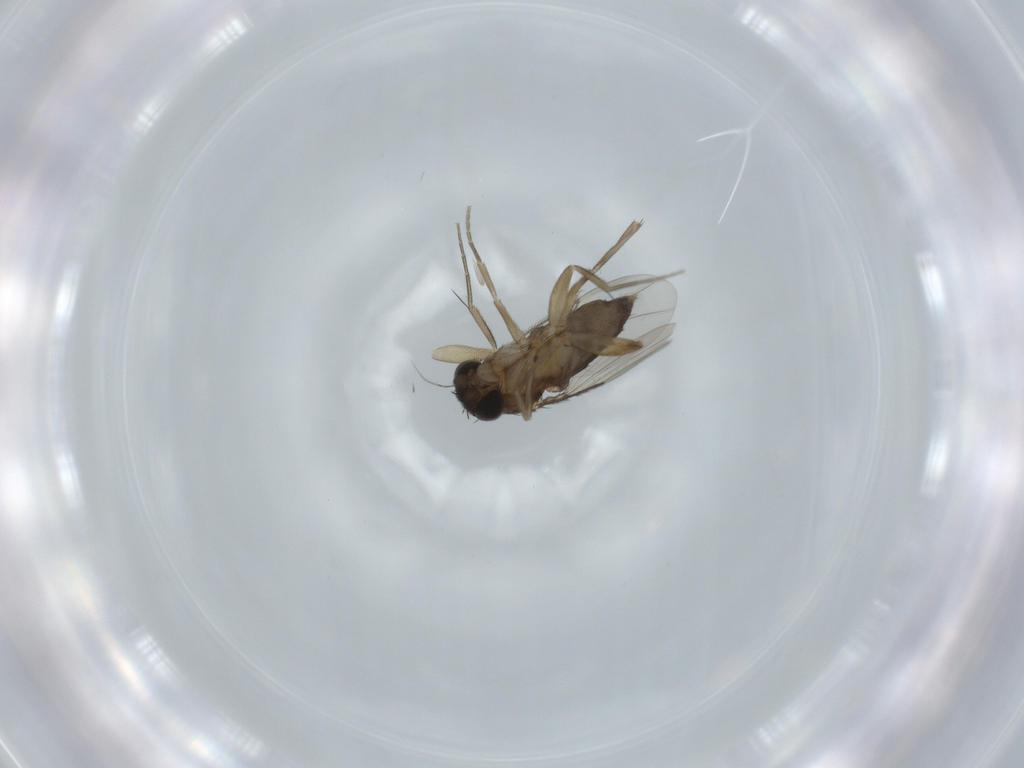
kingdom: Animalia
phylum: Arthropoda
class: Insecta
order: Diptera
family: Phoridae
